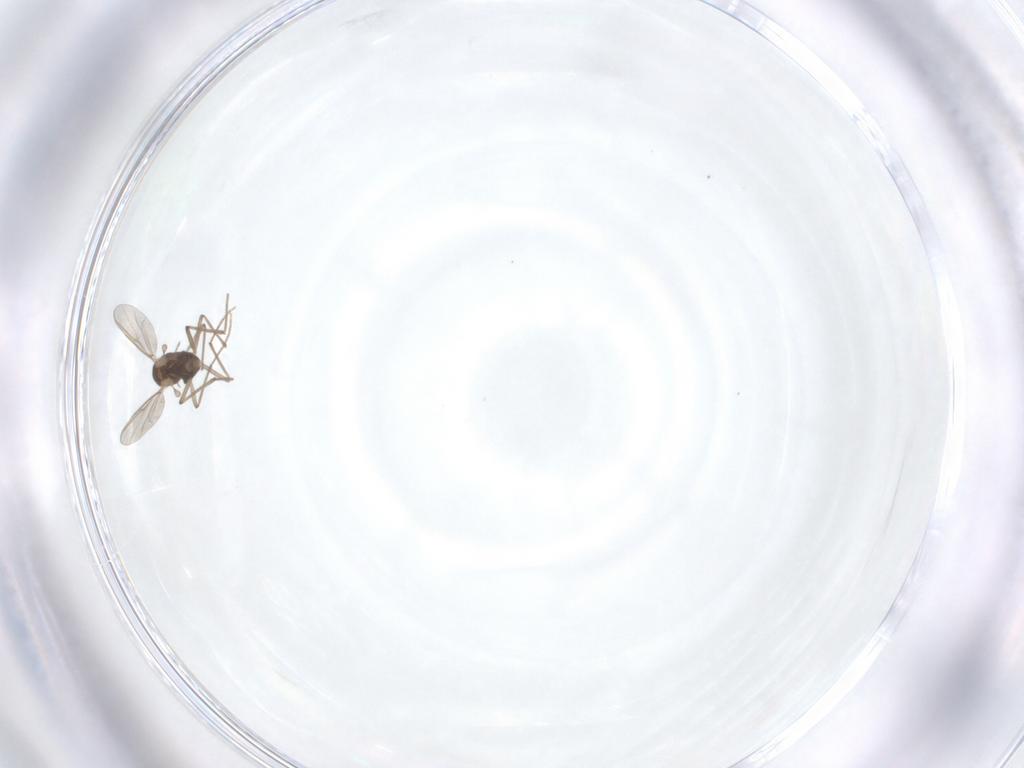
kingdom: Animalia
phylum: Arthropoda
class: Insecta
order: Diptera
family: Chironomidae
